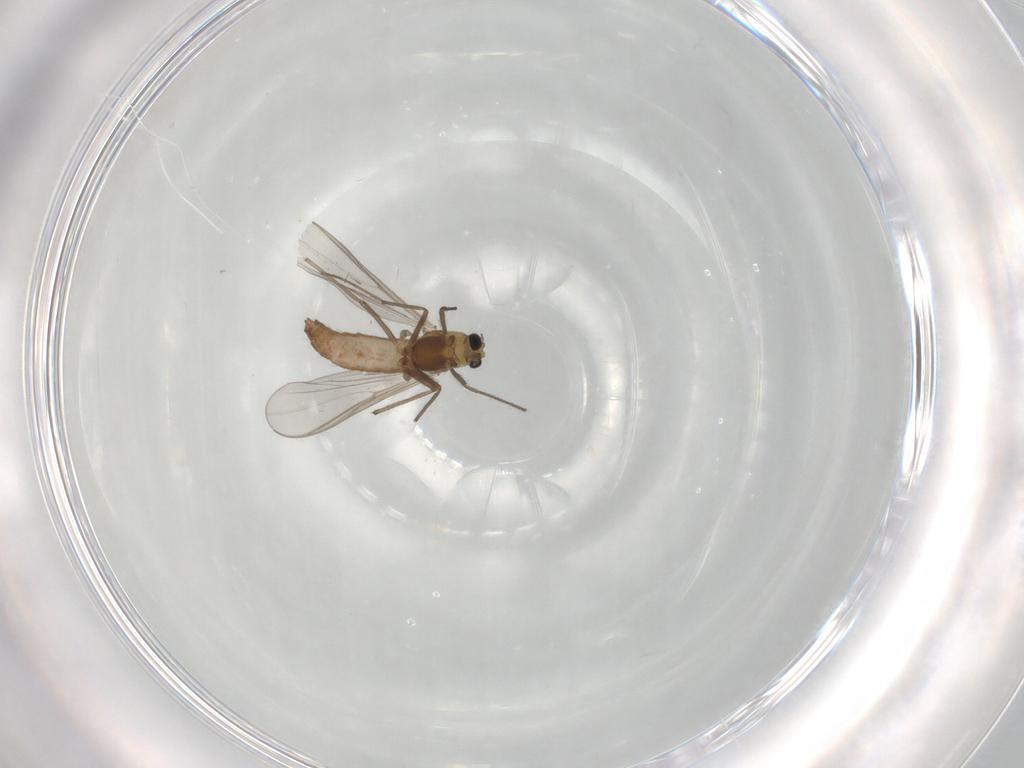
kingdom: Animalia
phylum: Arthropoda
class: Insecta
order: Diptera
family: Chironomidae
